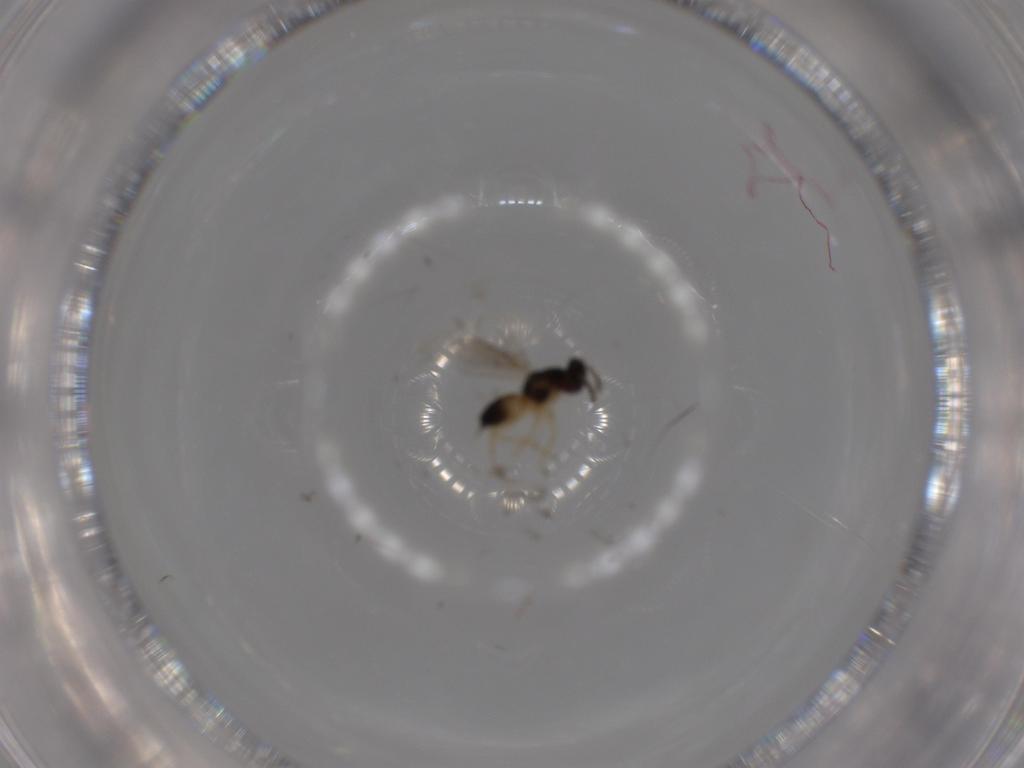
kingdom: Animalia
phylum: Arthropoda
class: Insecta
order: Hymenoptera
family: Eulophidae
